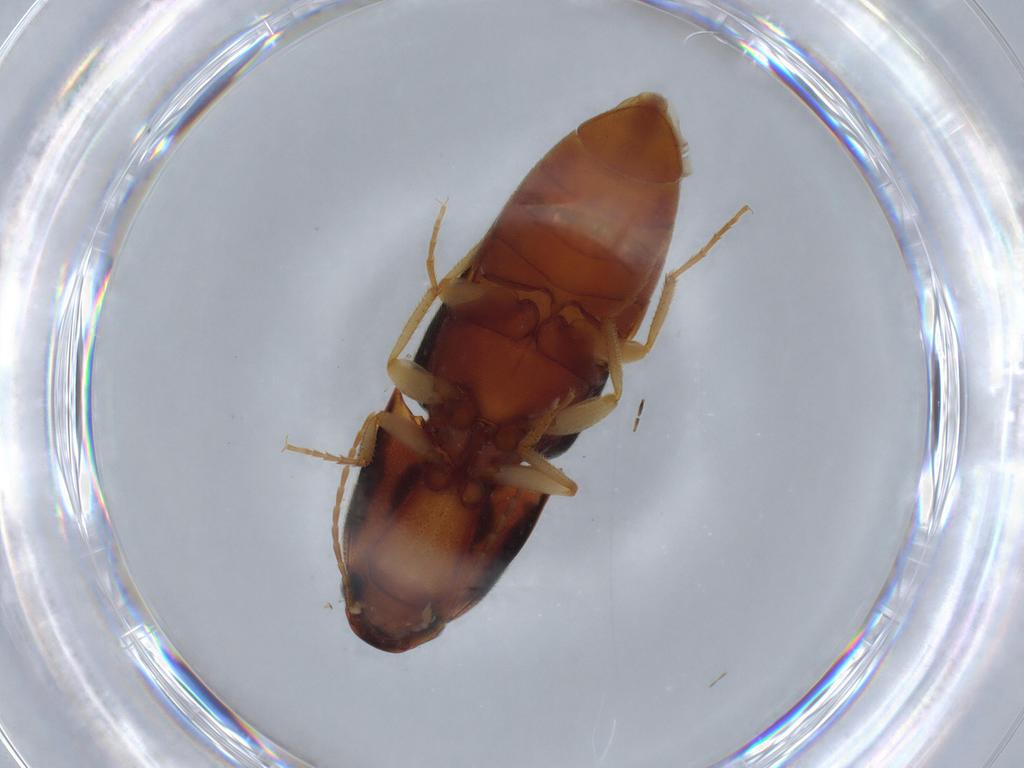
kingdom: Animalia
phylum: Arthropoda
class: Insecta
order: Coleoptera
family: Elateridae
